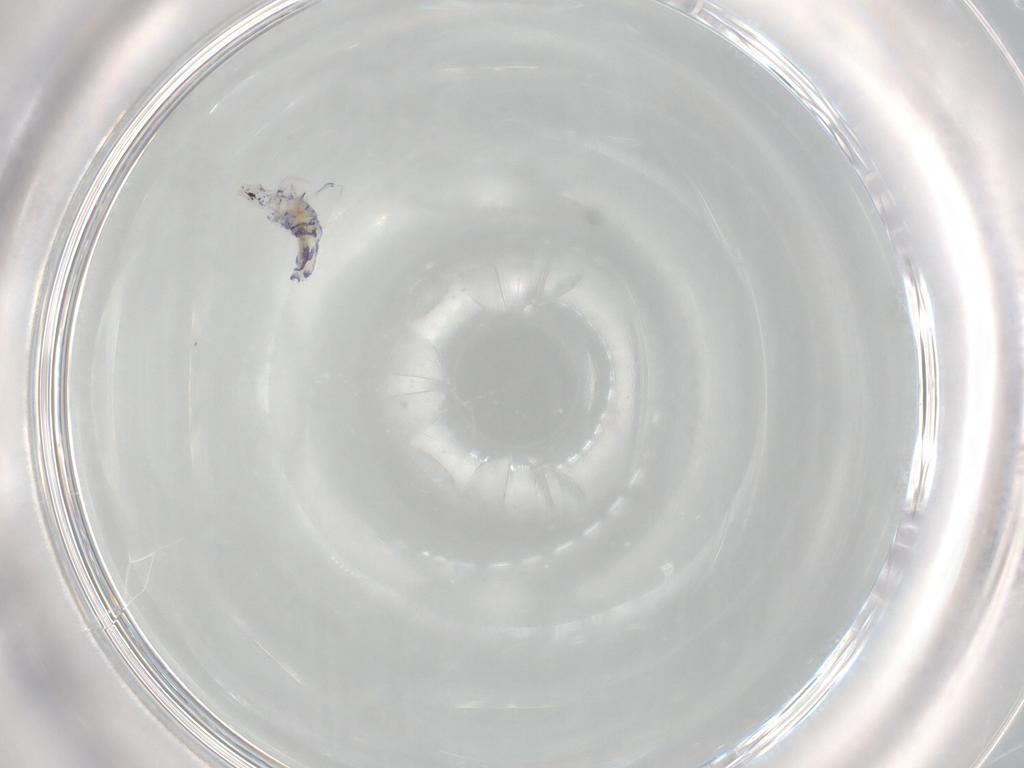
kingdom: Animalia
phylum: Arthropoda
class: Collembola
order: Entomobryomorpha
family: Entomobryidae
